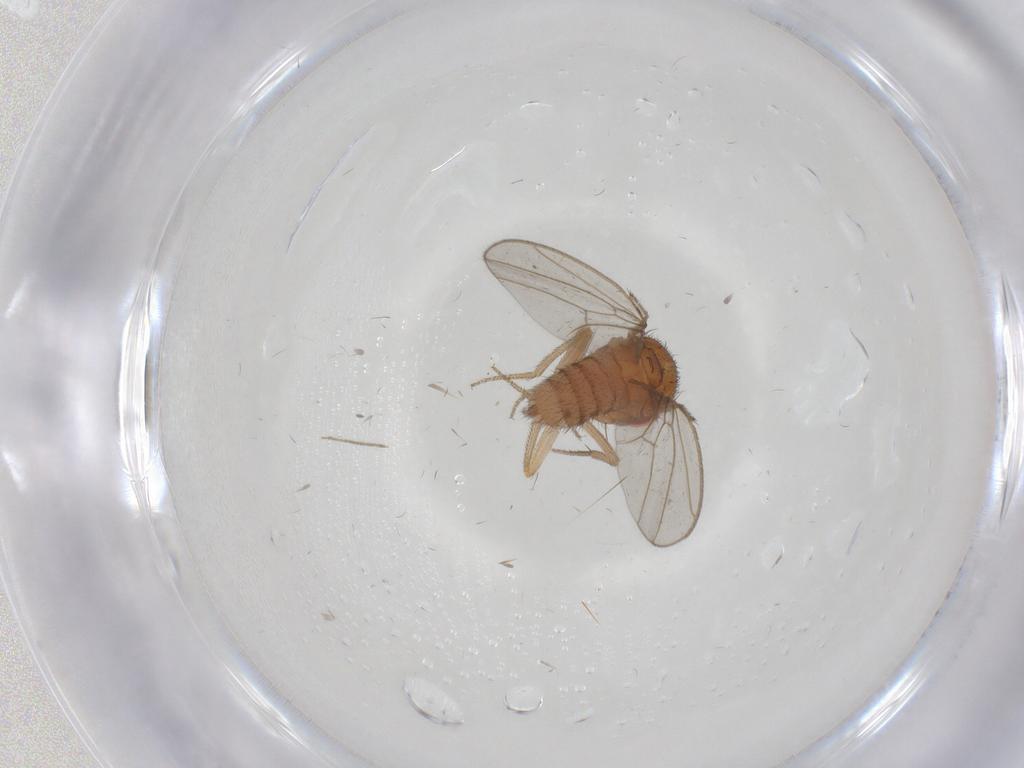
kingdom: Animalia
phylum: Arthropoda
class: Insecta
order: Diptera
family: Drosophilidae
